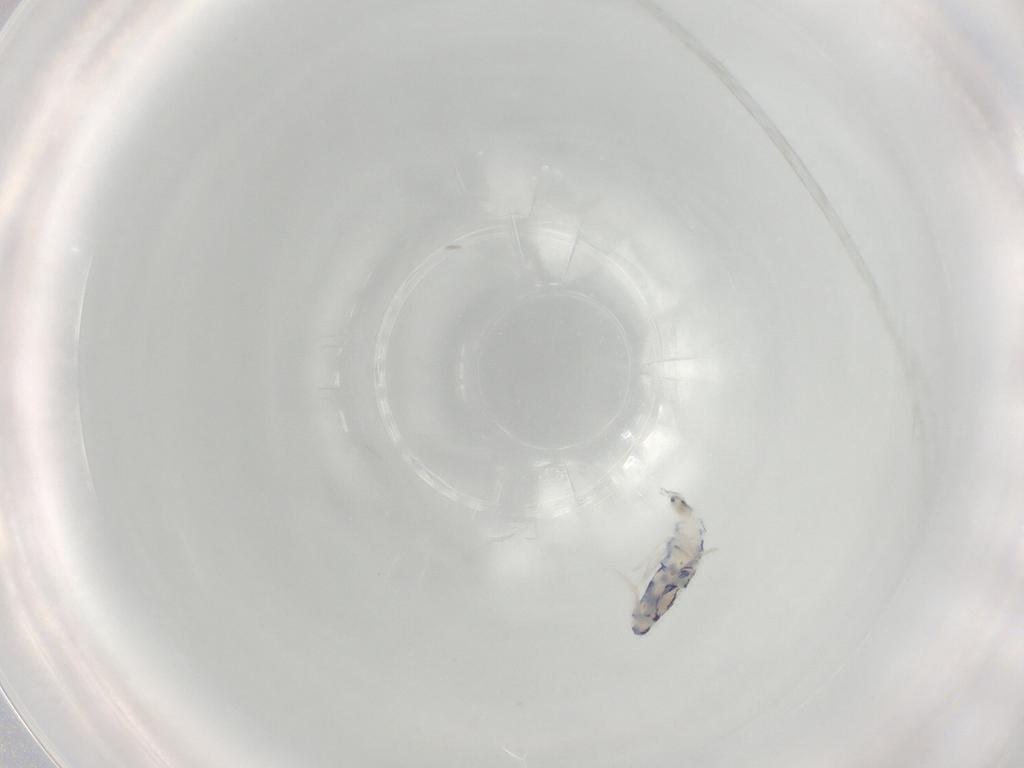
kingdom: Animalia
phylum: Arthropoda
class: Collembola
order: Entomobryomorpha
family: Entomobryidae
